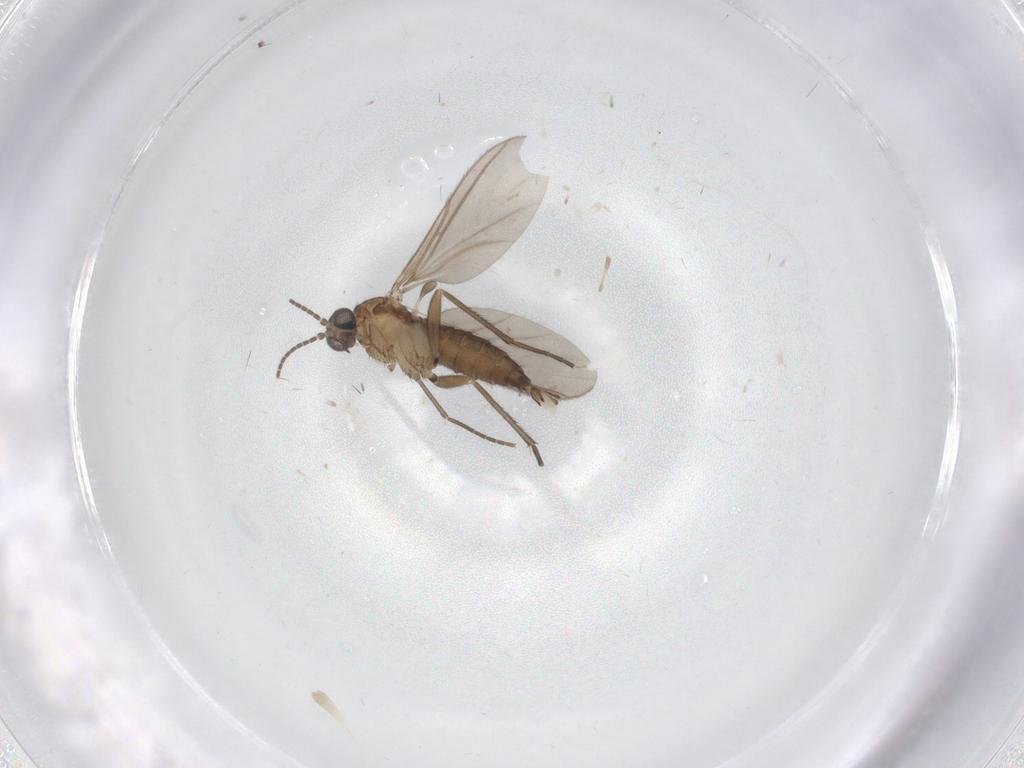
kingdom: Animalia
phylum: Arthropoda
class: Insecta
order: Diptera
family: Sciaridae
